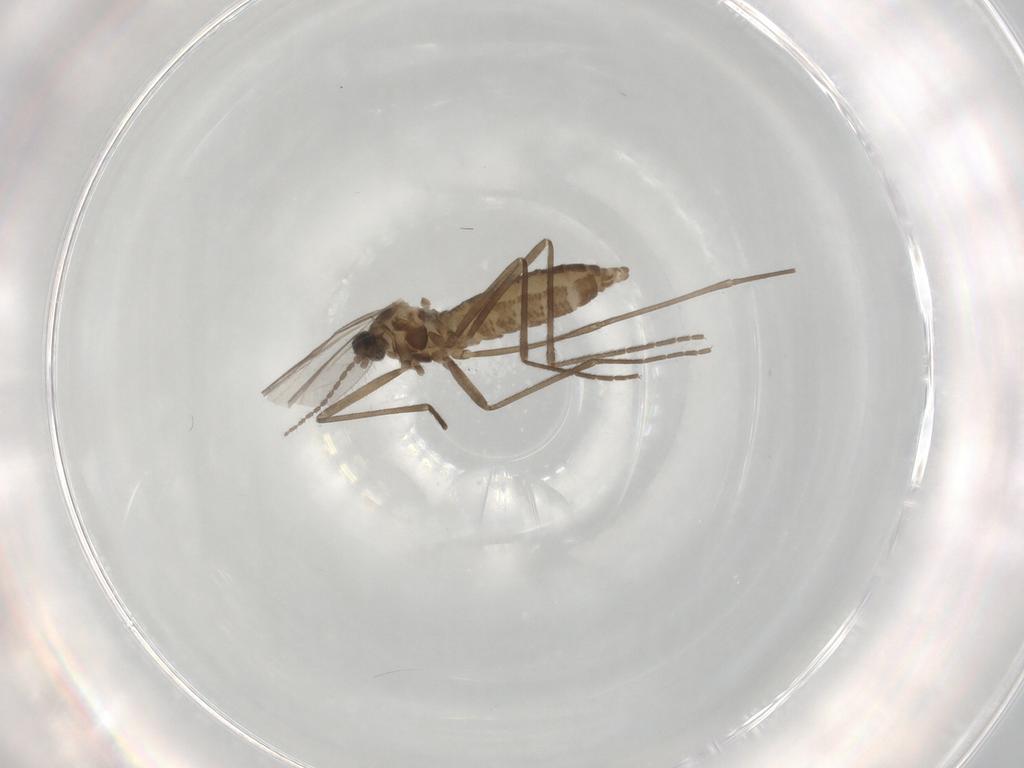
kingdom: Animalia
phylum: Arthropoda
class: Insecta
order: Diptera
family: Cecidomyiidae
